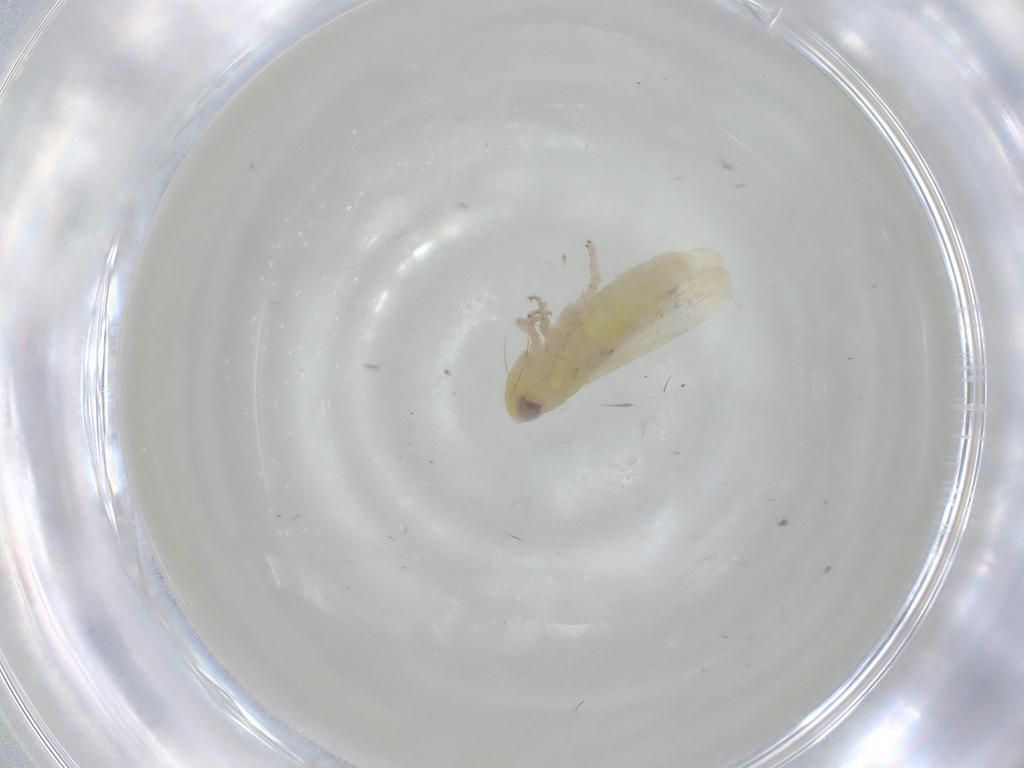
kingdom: Animalia
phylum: Arthropoda
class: Insecta
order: Hemiptera
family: Cicadellidae
